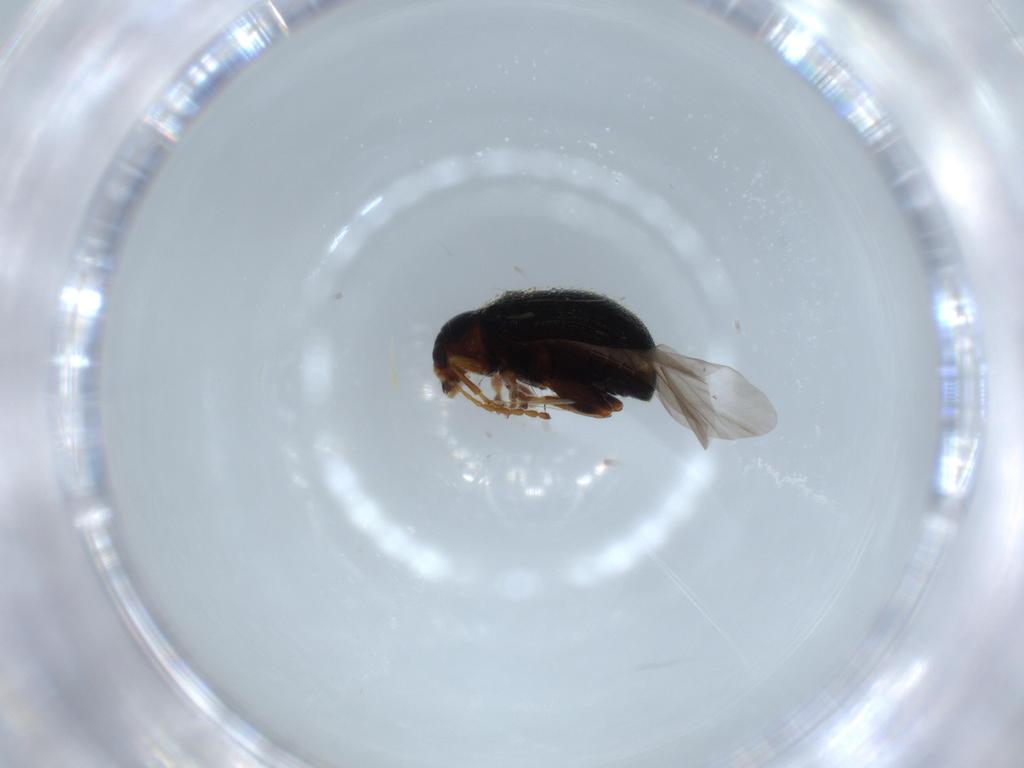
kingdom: Animalia
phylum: Arthropoda
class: Insecta
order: Coleoptera
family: Chrysomelidae
